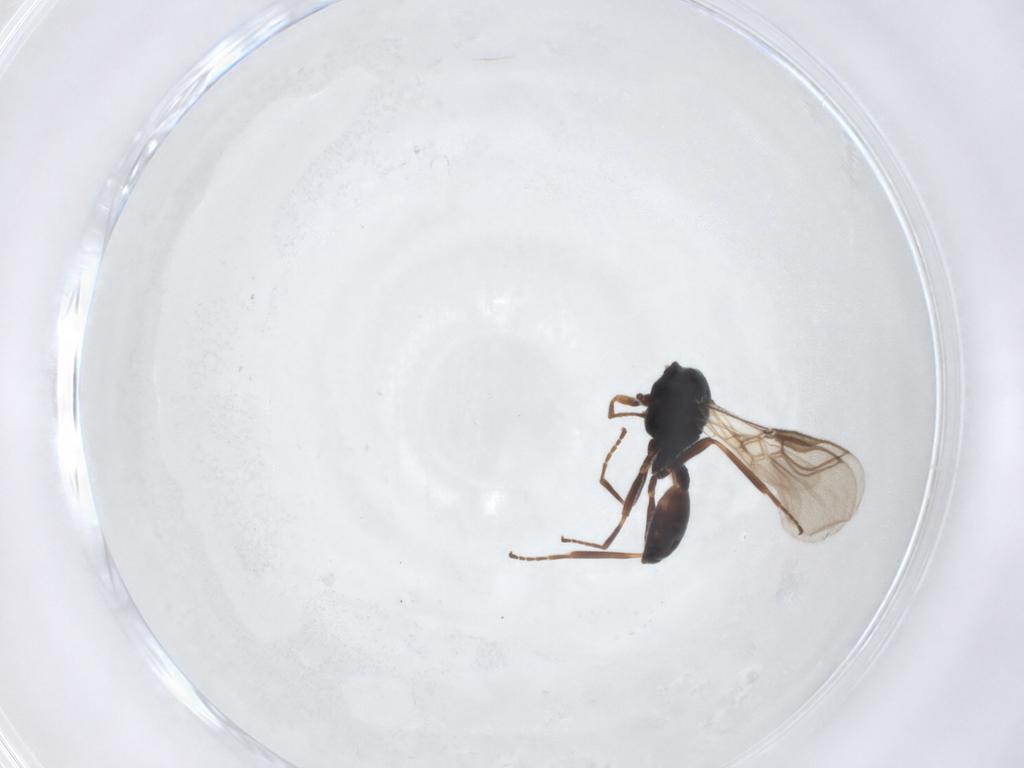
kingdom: Animalia
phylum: Arthropoda
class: Insecta
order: Hymenoptera
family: Braconidae
